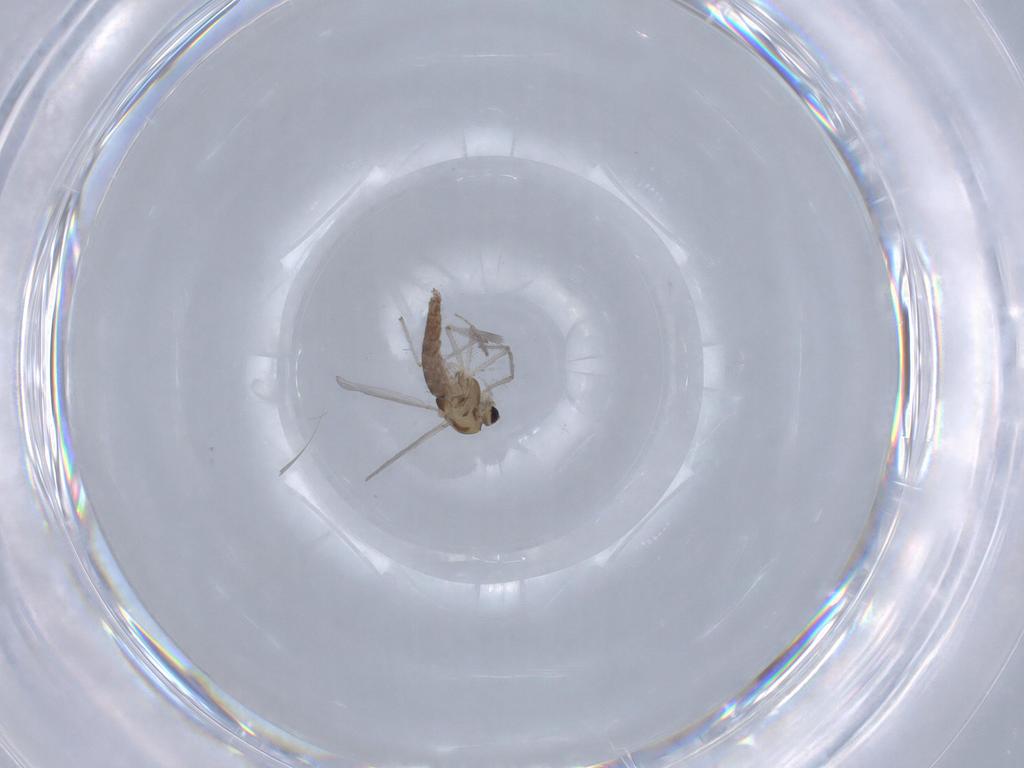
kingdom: Animalia
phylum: Arthropoda
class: Insecta
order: Diptera
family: Chironomidae
